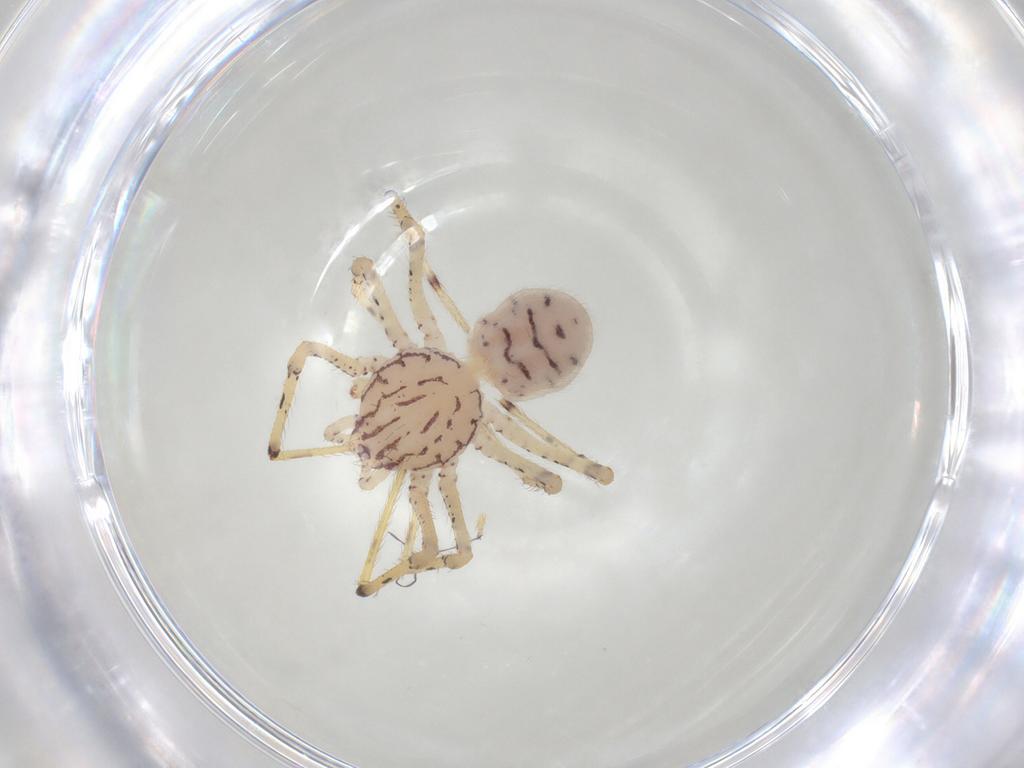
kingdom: Animalia
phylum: Arthropoda
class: Arachnida
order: Araneae
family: Scytodidae
